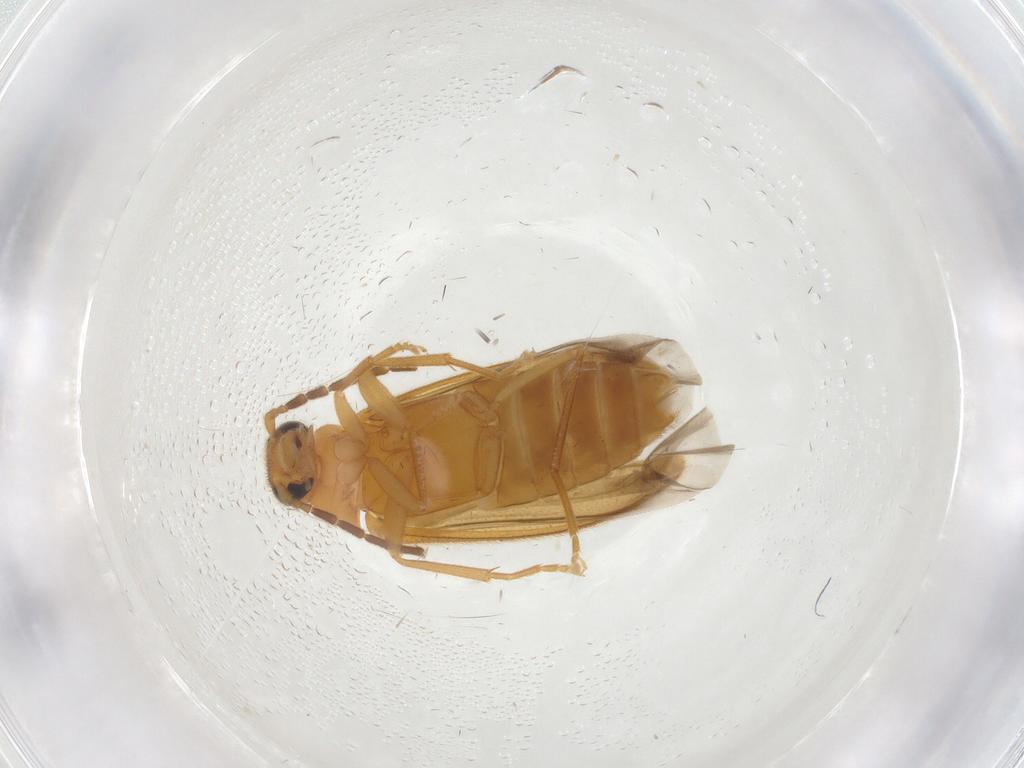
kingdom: Animalia
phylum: Arthropoda
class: Insecta
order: Coleoptera
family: Scraptiidae
